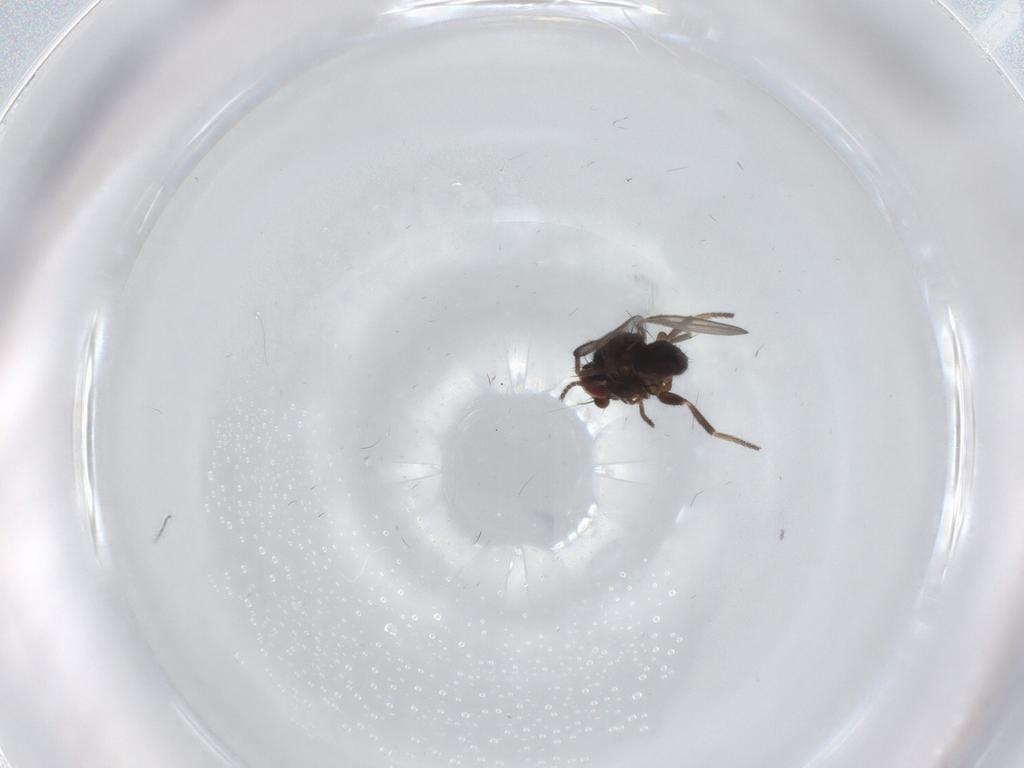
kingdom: Animalia
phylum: Arthropoda
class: Insecta
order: Diptera
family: Milichiidae
